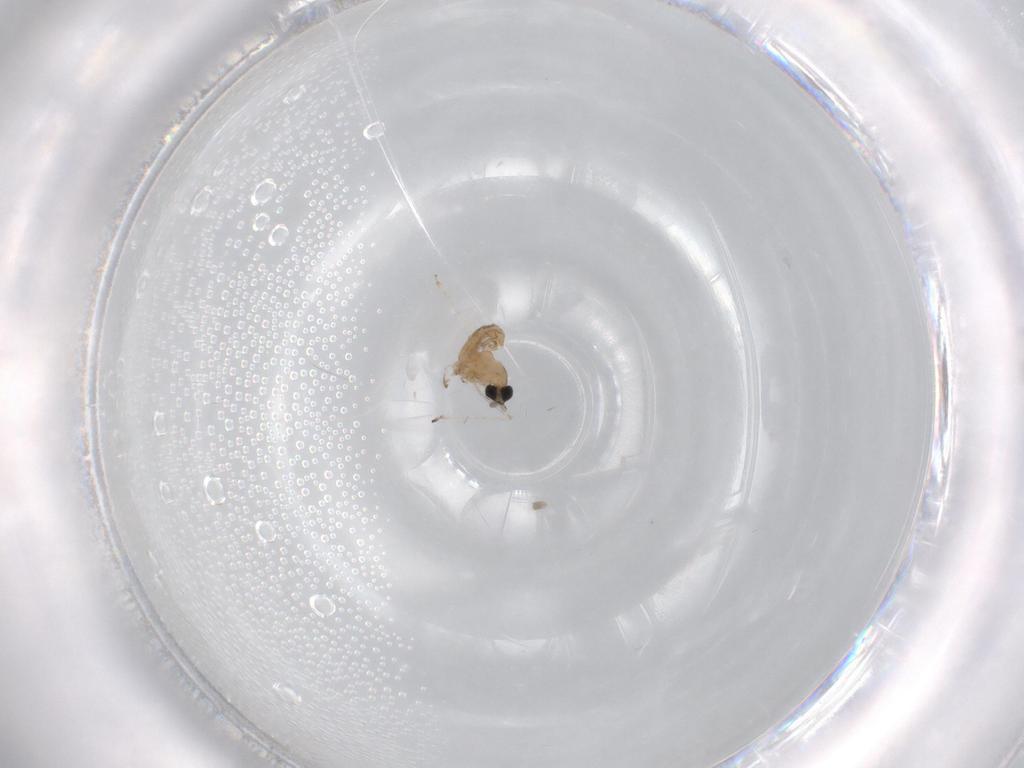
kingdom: Animalia
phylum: Arthropoda
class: Insecta
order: Diptera
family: Cecidomyiidae
